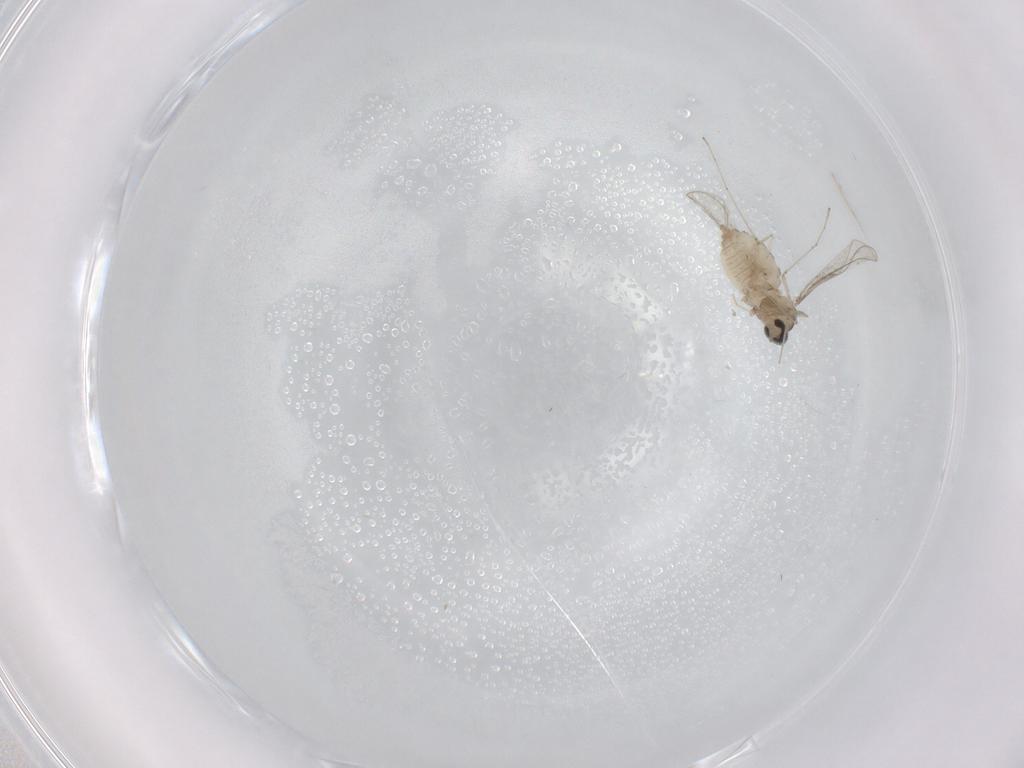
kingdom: Animalia
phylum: Arthropoda
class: Insecta
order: Diptera
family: Cecidomyiidae
